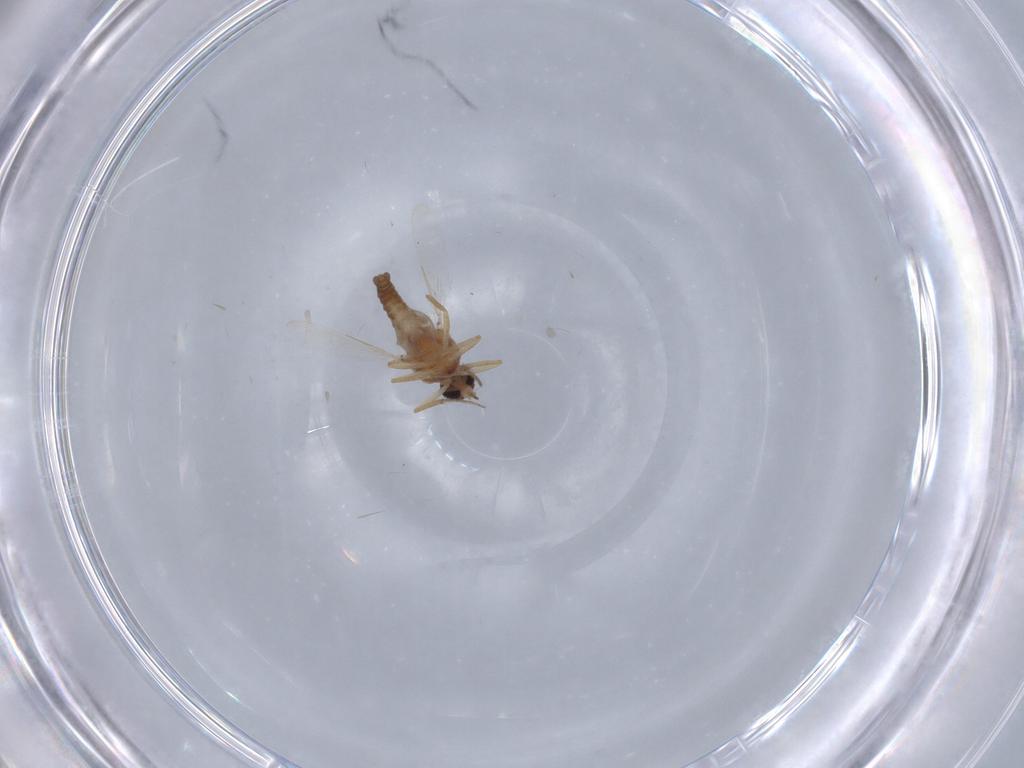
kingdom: Animalia
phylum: Arthropoda
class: Insecta
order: Diptera
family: Ceratopogonidae
